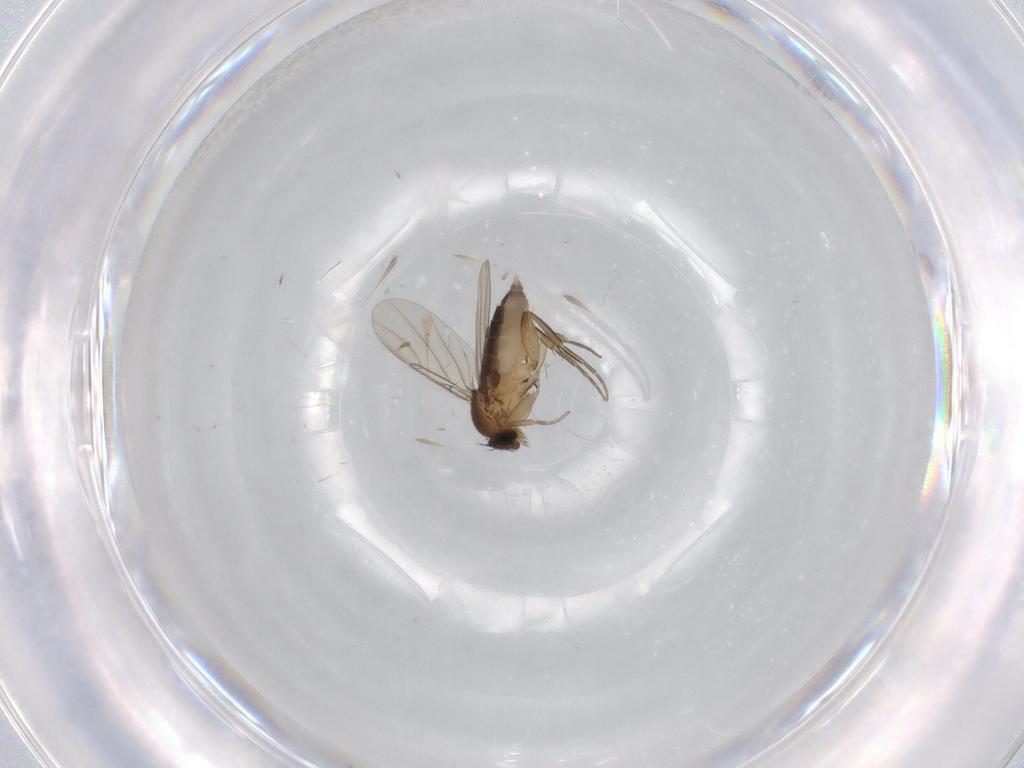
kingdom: Animalia
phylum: Arthropoda
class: Insecta
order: Diptera
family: Phoridae
